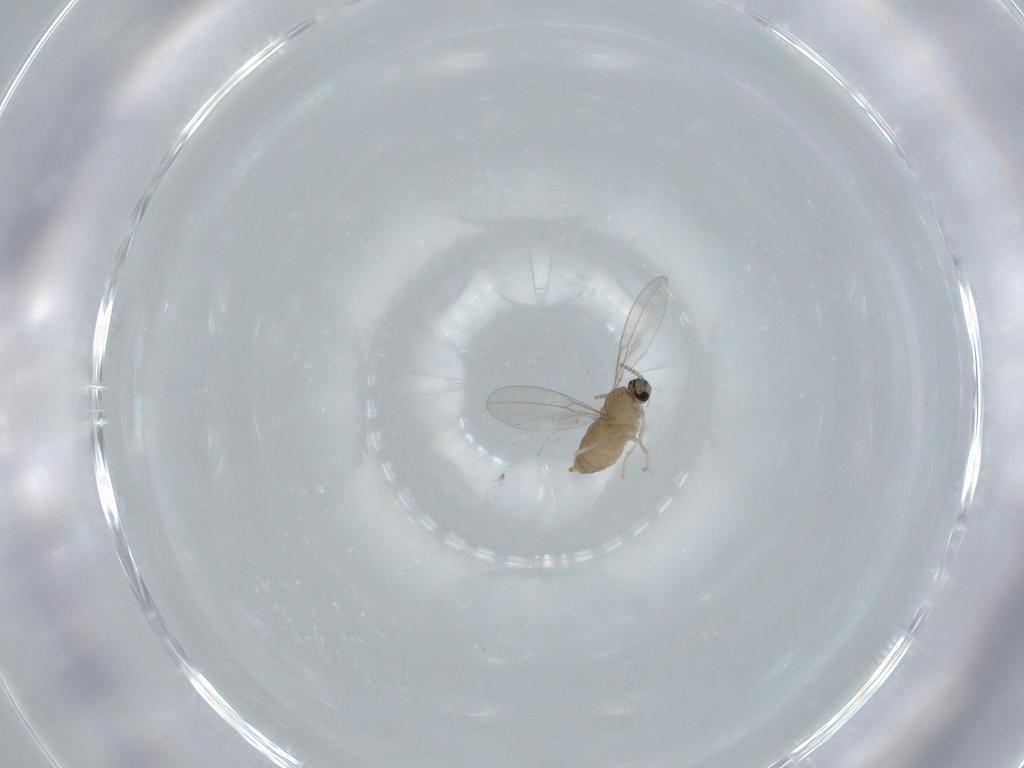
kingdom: Animalia
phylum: Arthropoda
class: Insecta
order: Diptera
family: Cecidomyiidae
